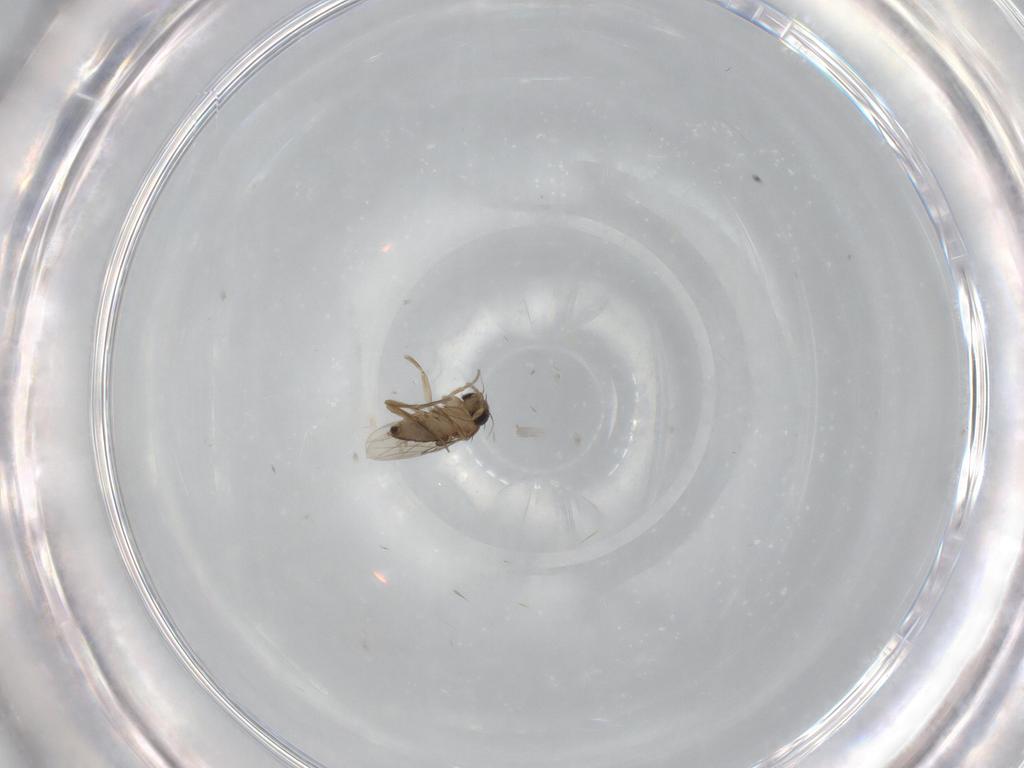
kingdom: Animalia
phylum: Arthropoda
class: Insecta
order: Diptera
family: Phoridae
